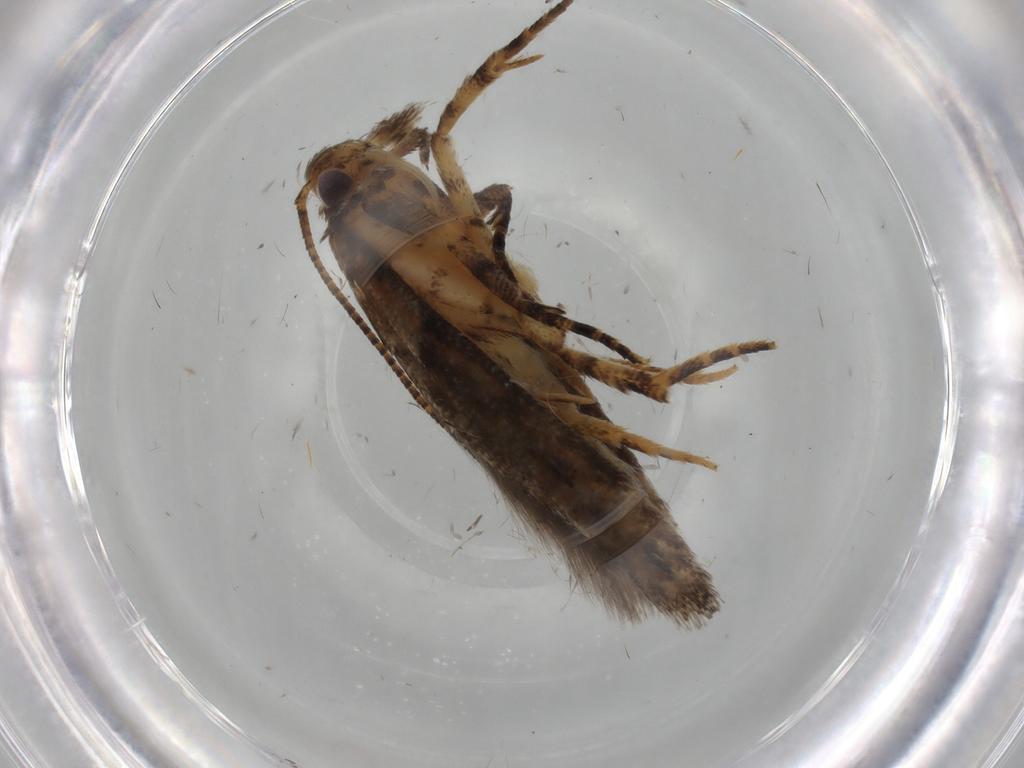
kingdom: Animalia
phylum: Arthropoda
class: Insecta
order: Lepidoptera
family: Gelechiidae
